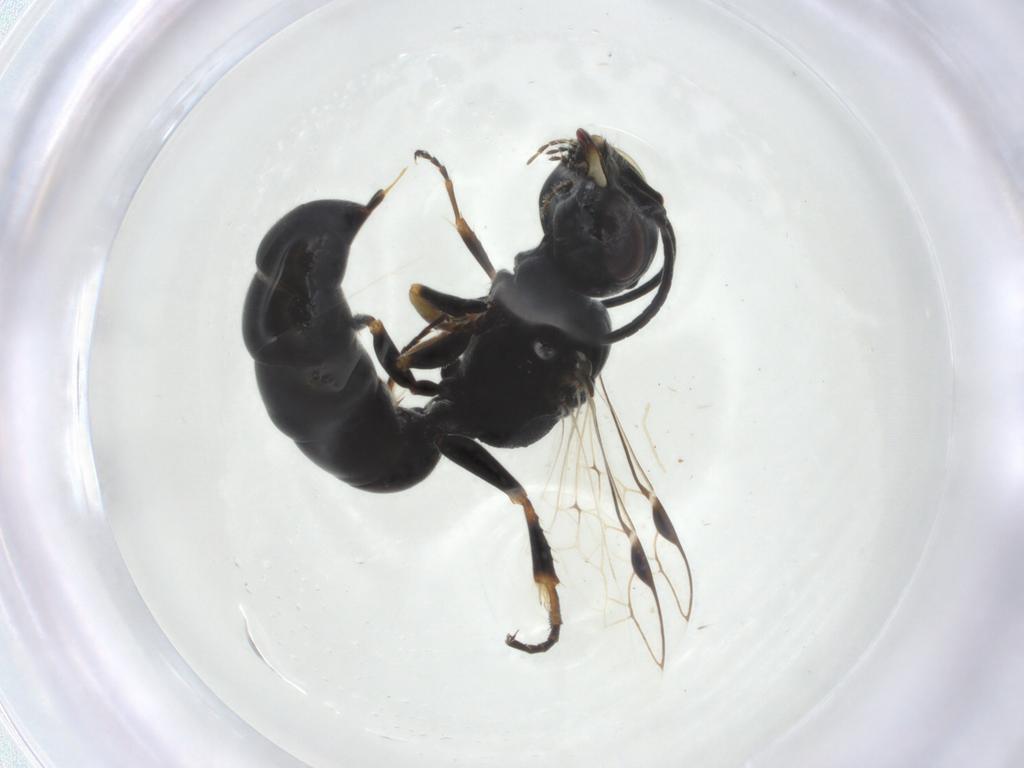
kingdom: Animalia
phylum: Arthropoda
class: Insecta
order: Hymenoptera
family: Pemphredonidae
